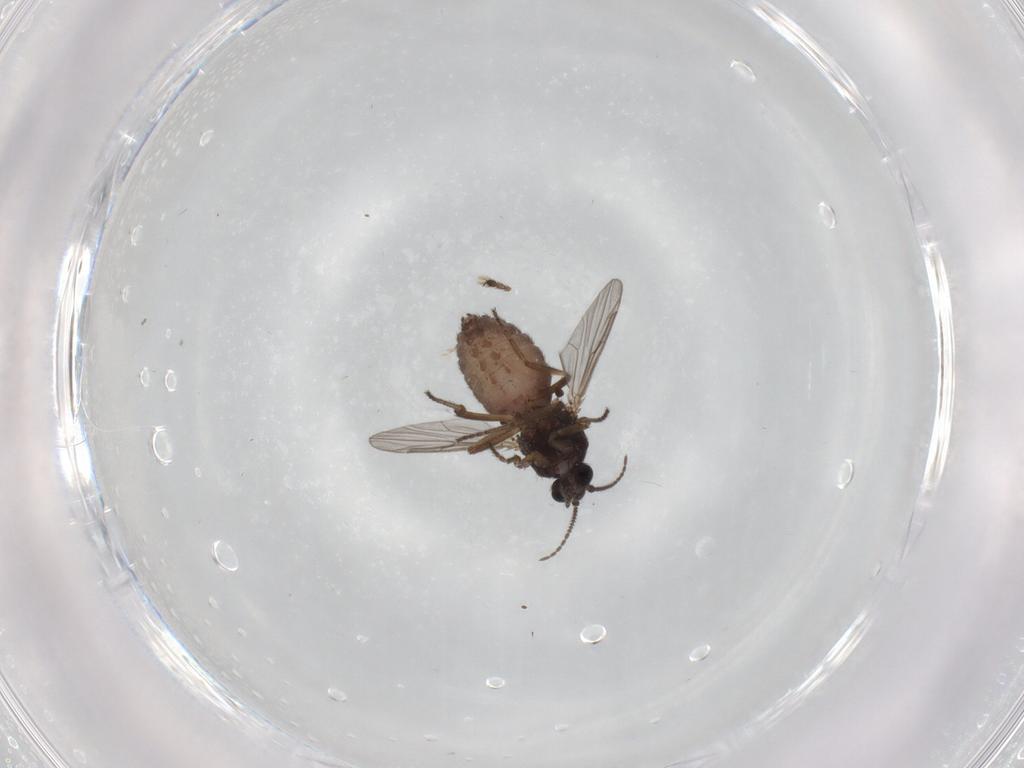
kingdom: Animalia
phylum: Arthropoda
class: Insecta
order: Diptera
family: Ceratopogonidae
